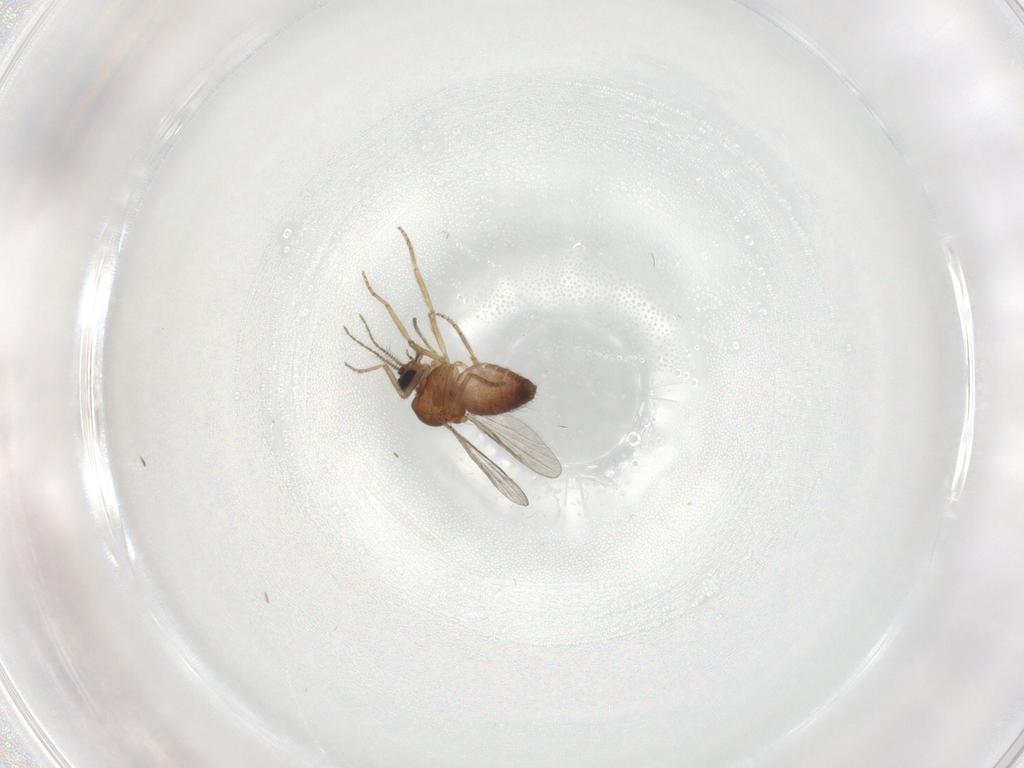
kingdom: Animalia
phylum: Arthropoda
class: Insecta
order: Diptera
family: Ceratopogonidae
